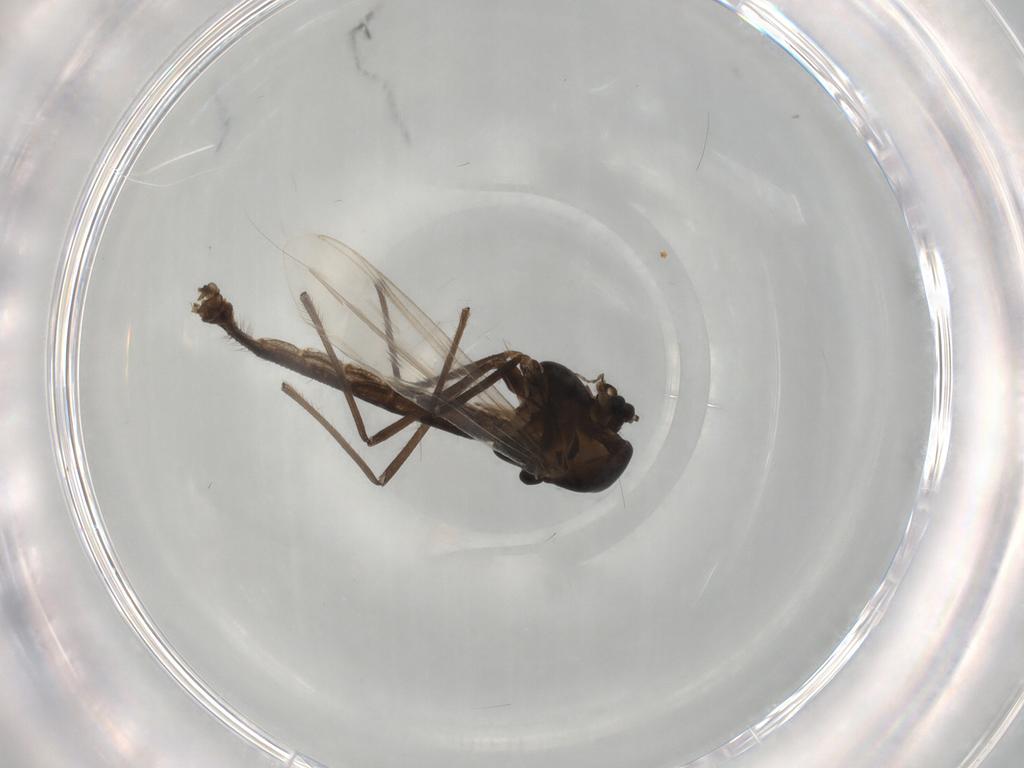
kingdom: Animalia
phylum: Arthropoda
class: Insecta
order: Diptera
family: Chironomidae
